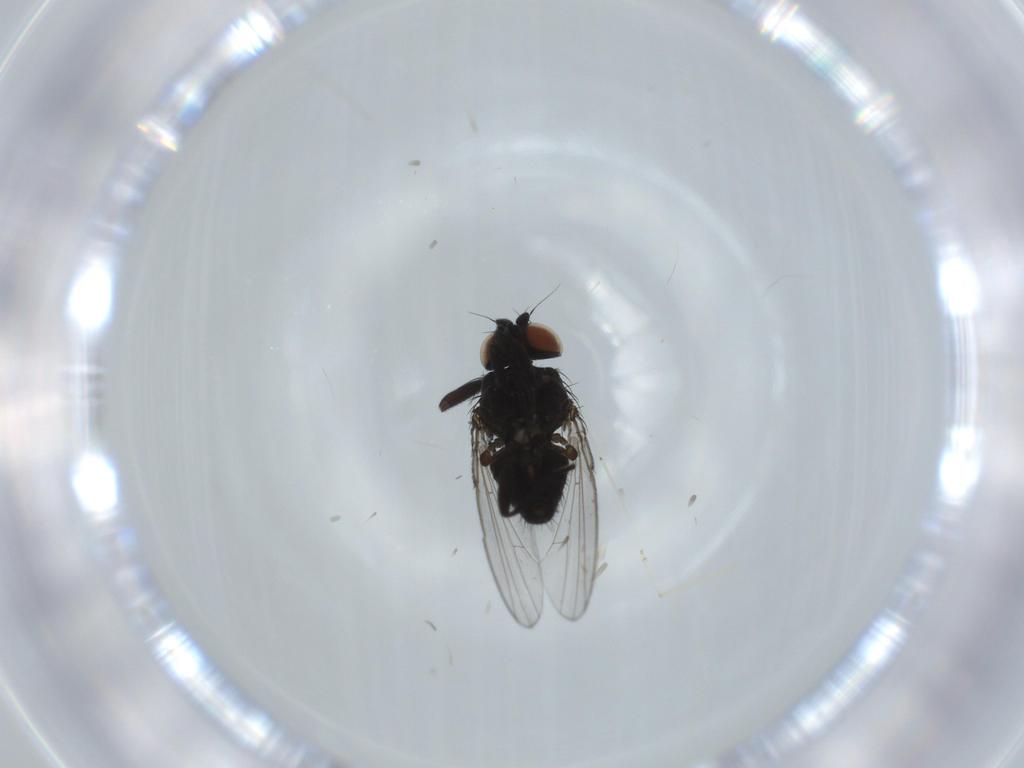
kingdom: Animalia
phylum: Arthropoda
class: Insecta
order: Diptera
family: Milichiidae
